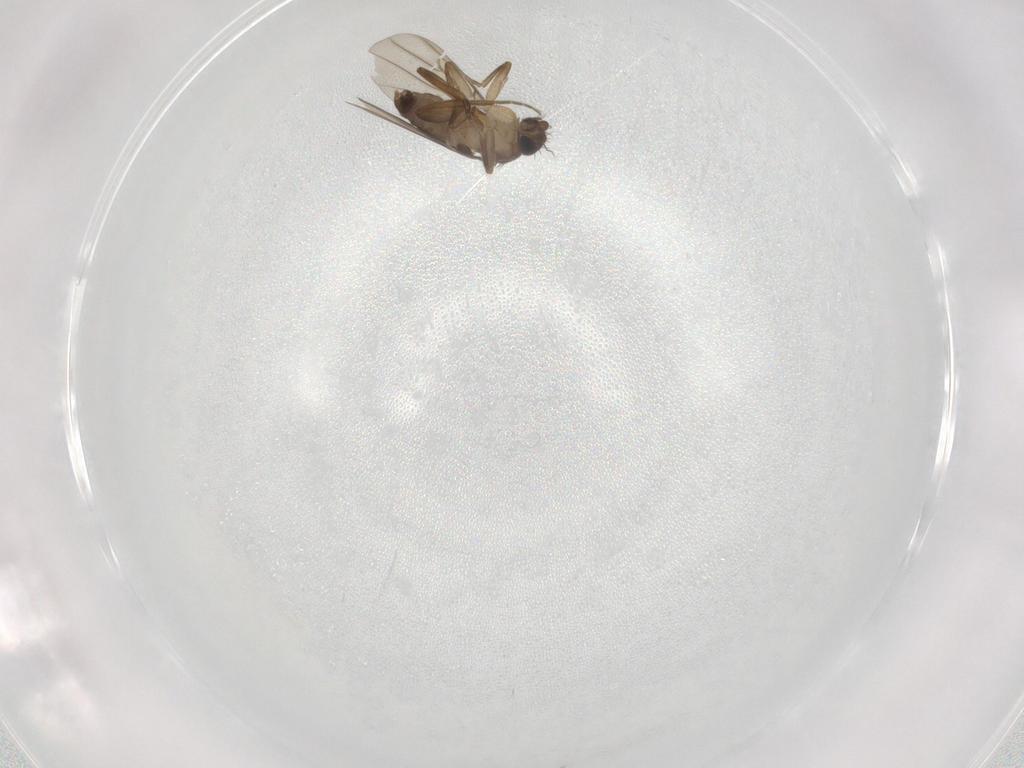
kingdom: Animalia
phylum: Arthropoda
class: Insecta
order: Diptera
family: Phoridae
